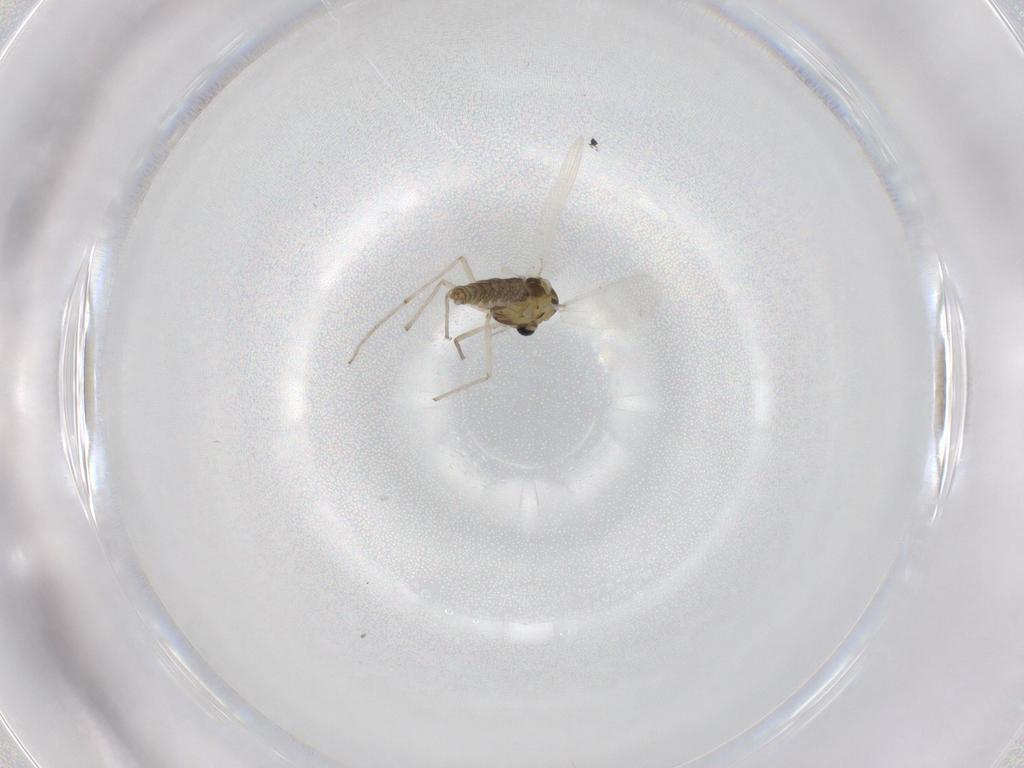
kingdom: Animalia
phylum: Arthropoda
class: Insecta
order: Diptera
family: Chironomidae
